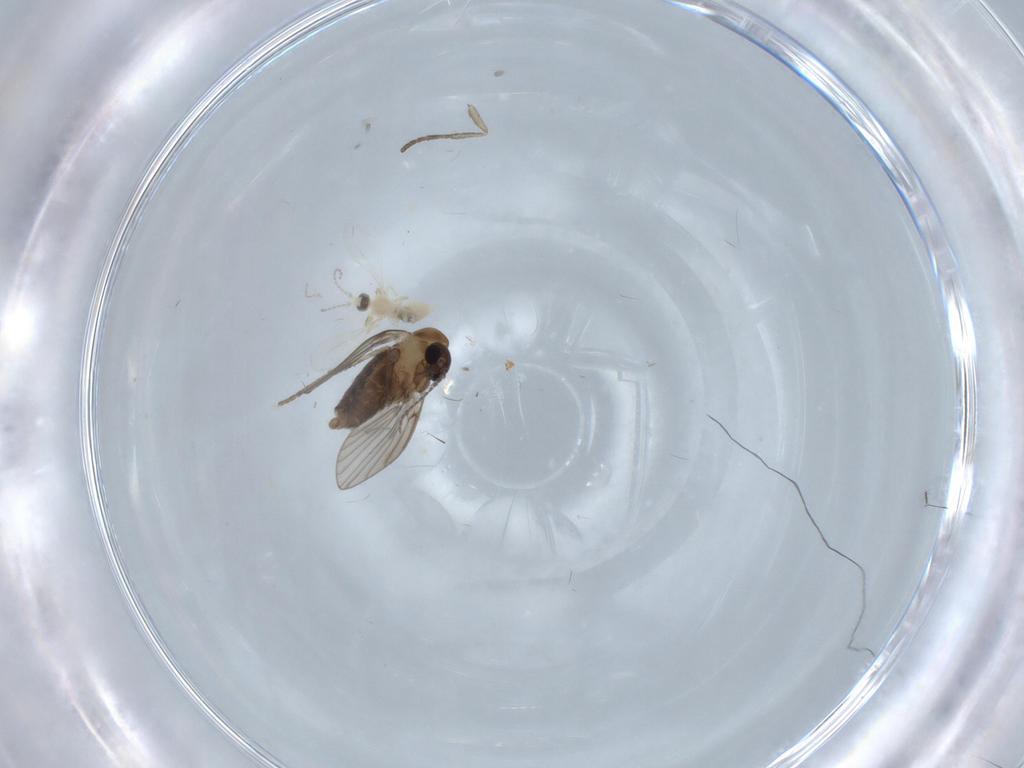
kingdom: Animalia
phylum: Arthropoda
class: Insecta
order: Diptera
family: Cecidomyiidae
